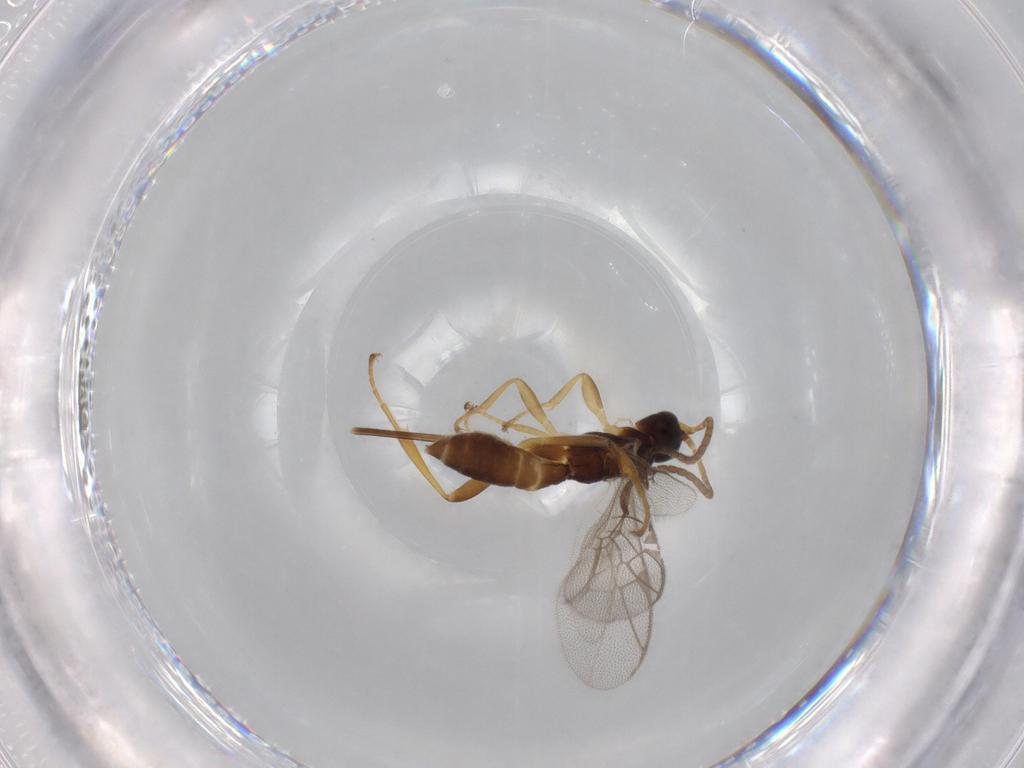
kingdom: Animalia
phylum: Arthropoda
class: Insecta
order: Hymenoptera
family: Ichneumonidae
